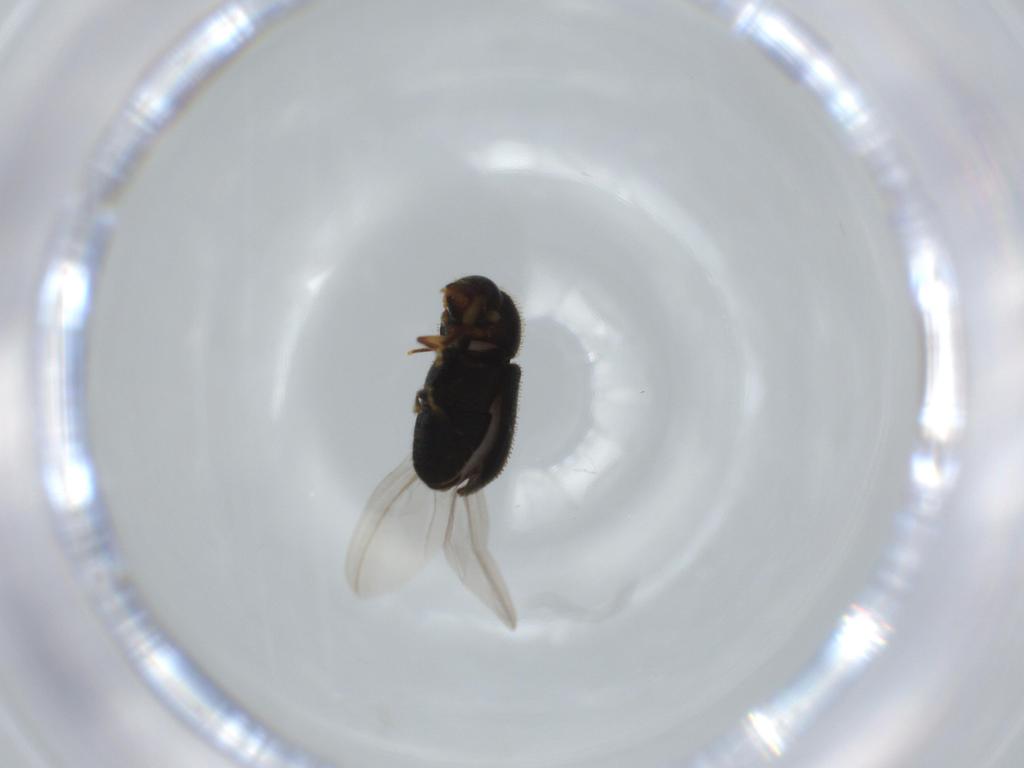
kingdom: Animalia
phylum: Arthropoda
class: Insecta
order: Coleoptera
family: Curculionidae
